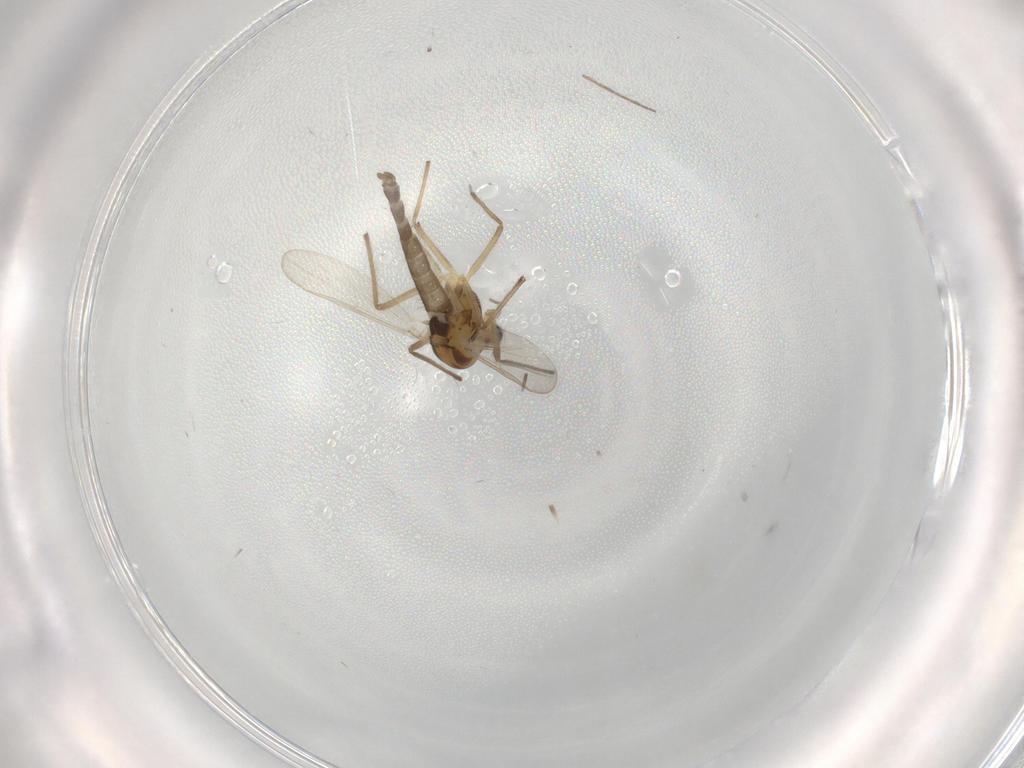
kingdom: Animalia
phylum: Arthropoda
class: Insecta
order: Diptera
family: Chironomidae
